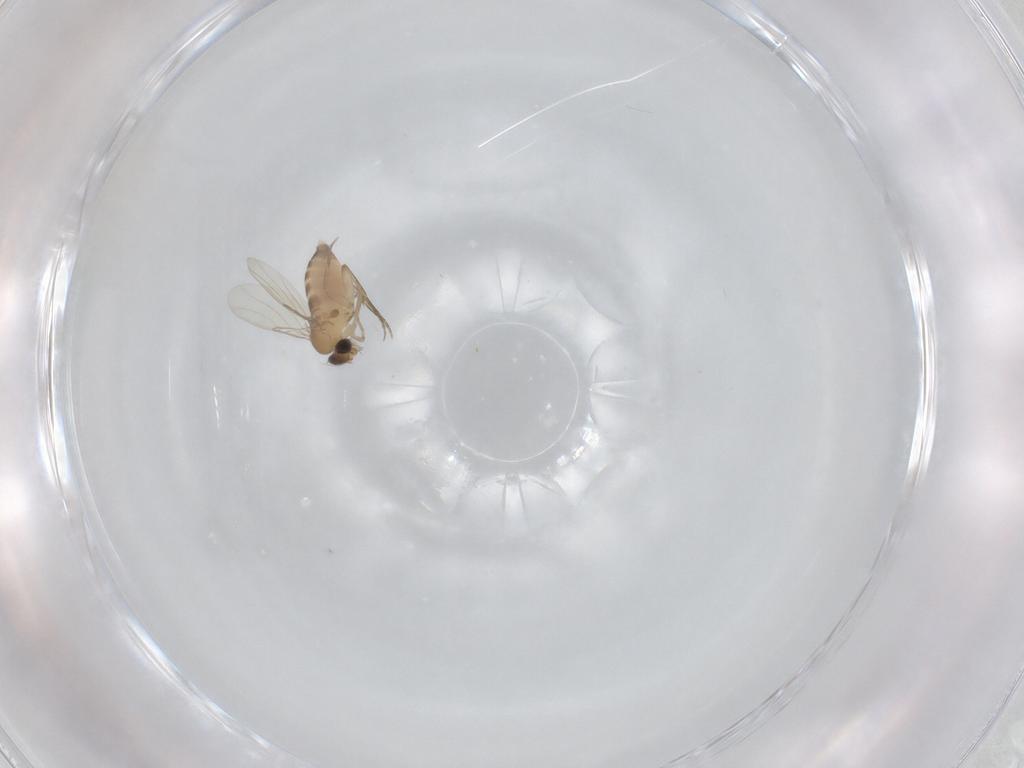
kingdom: Animalia
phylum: Arthropoda
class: Insecta
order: Diptera
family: Phoridae
